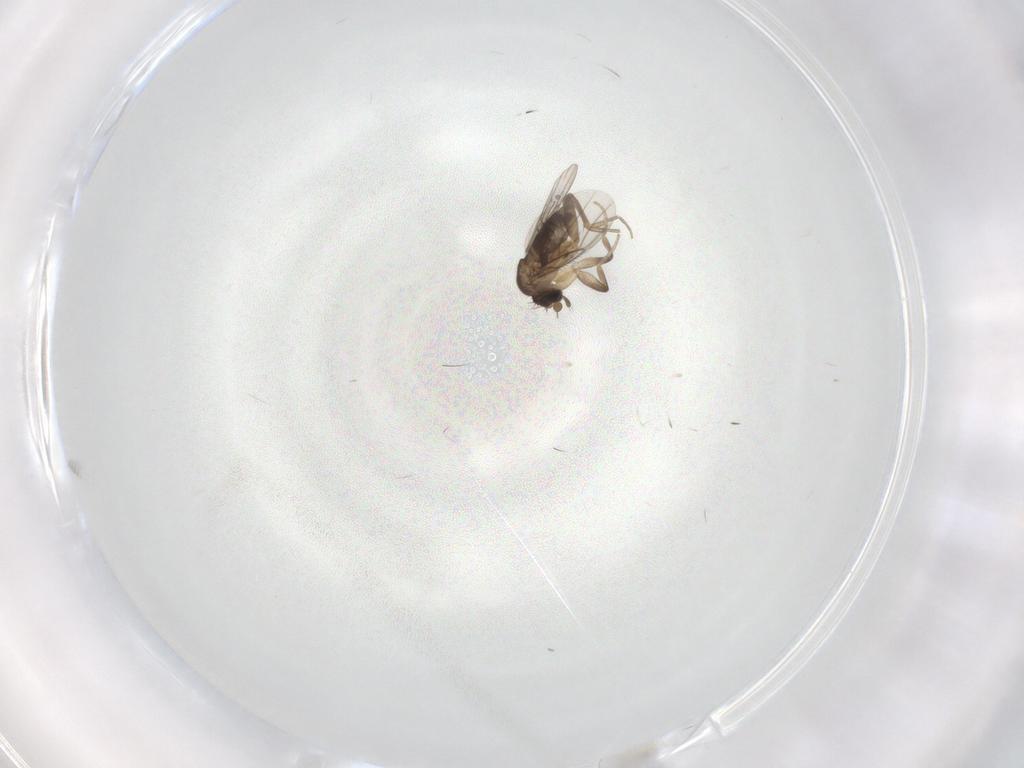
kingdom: Animalia
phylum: Arthropoda
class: Insecta
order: Diptera
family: Phoridae
